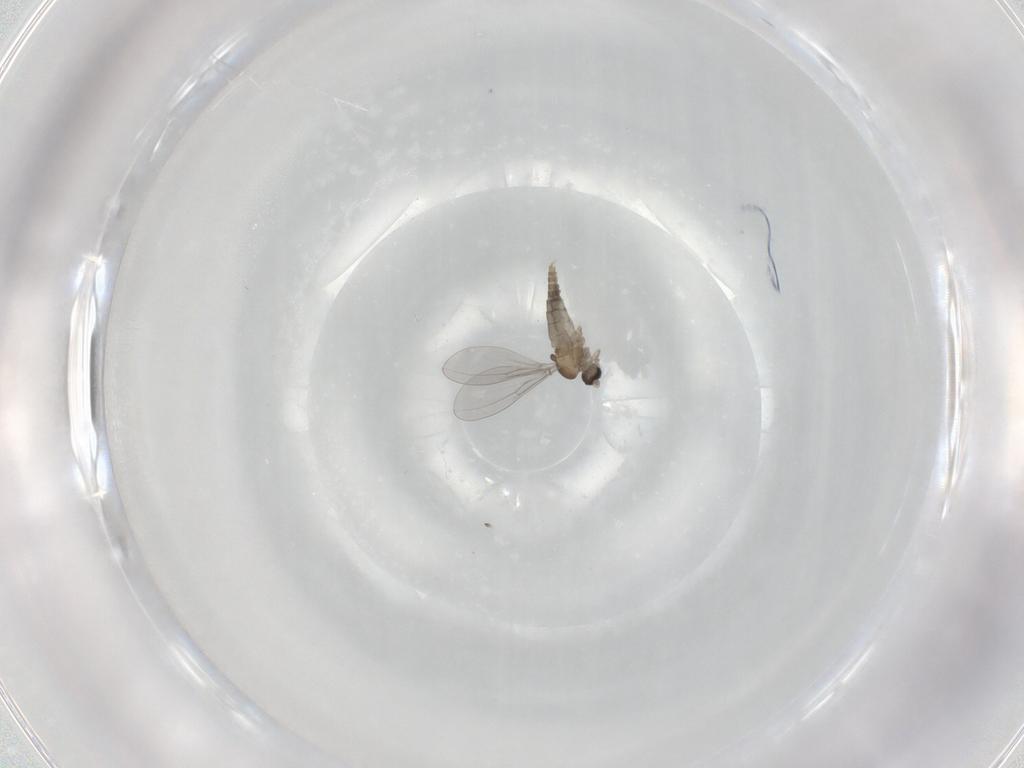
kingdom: Animalia
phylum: Arthropoda
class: Insecta
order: Diptera
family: Cecidomyiidae
